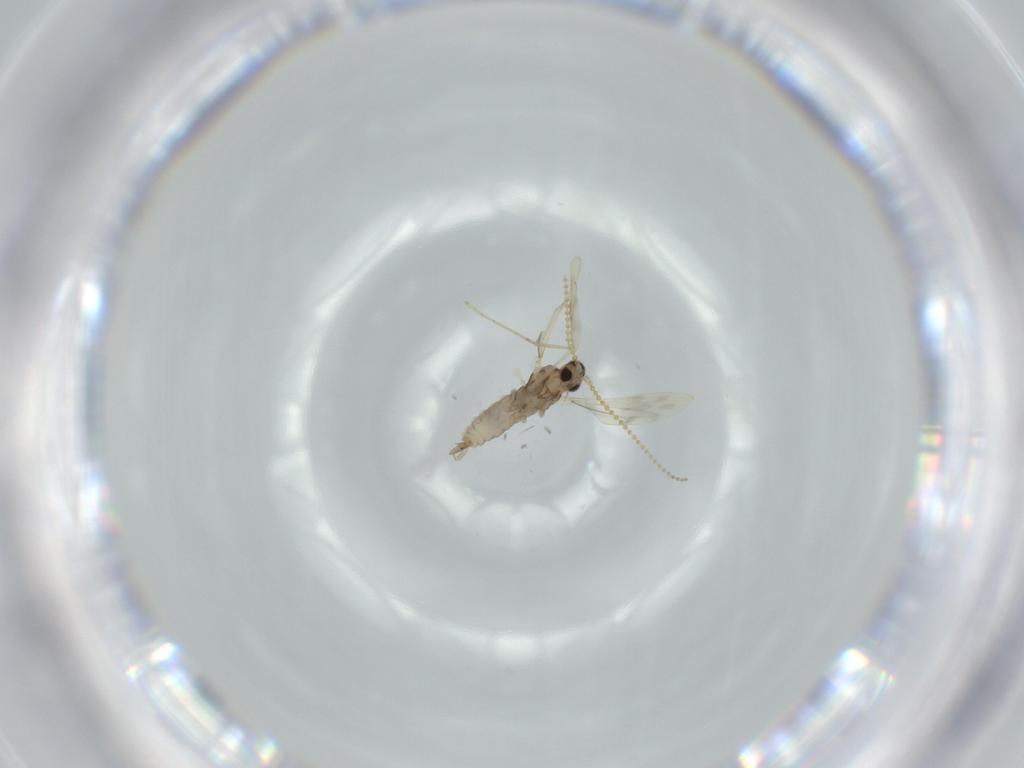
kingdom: Animalia
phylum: Arthropoda
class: Insecta
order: Diptera
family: Cecidomyiidae
